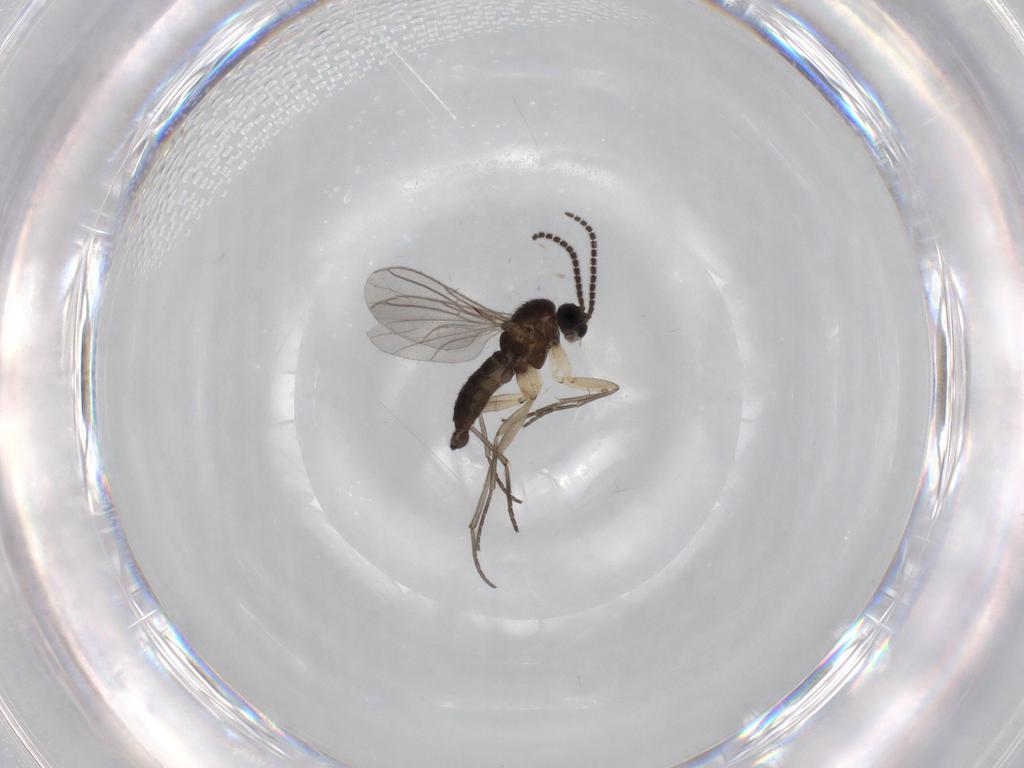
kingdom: Animalia
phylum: Arthropoda
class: Insecta
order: Diptera
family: Sciaridae
